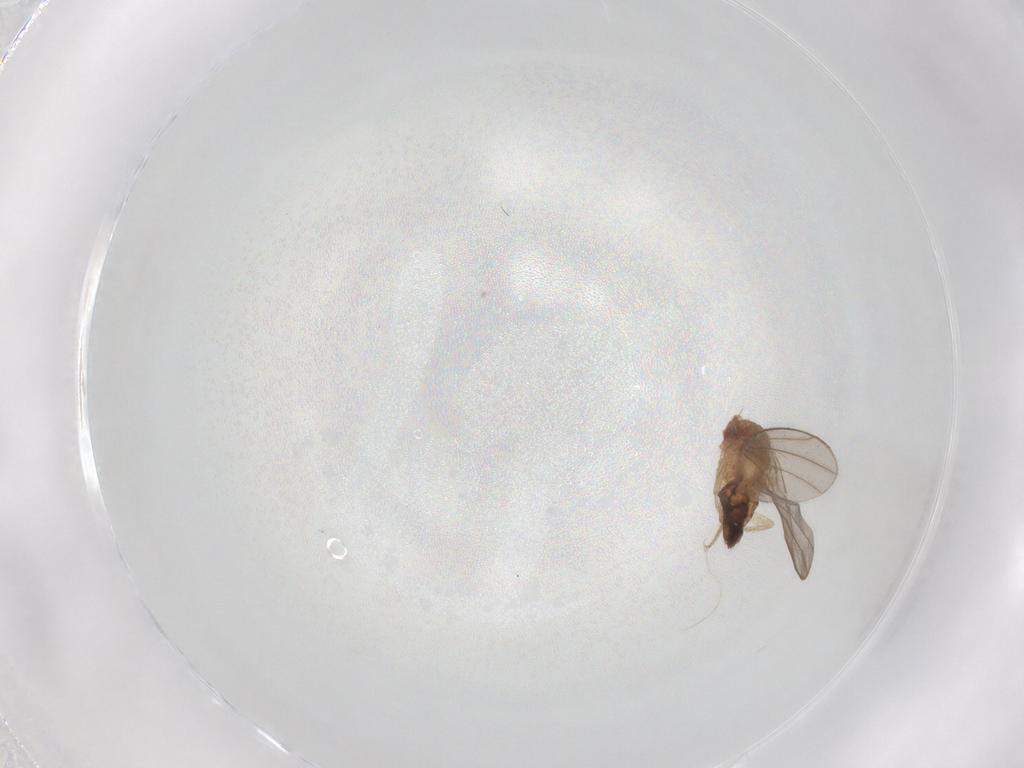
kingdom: Animalia
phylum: Arthropoda
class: Insecta
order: Diptera
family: Drosophilidae
